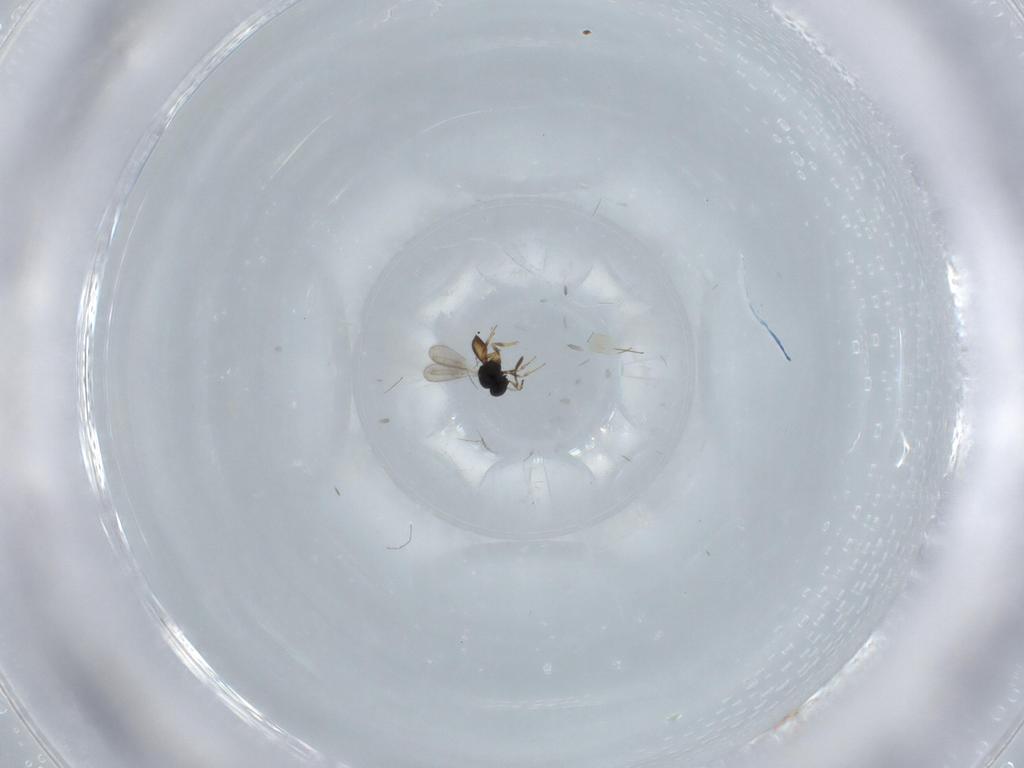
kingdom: Animalia
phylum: Arthropoda
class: Insecta
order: Hymenoptera
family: Scelionidae
